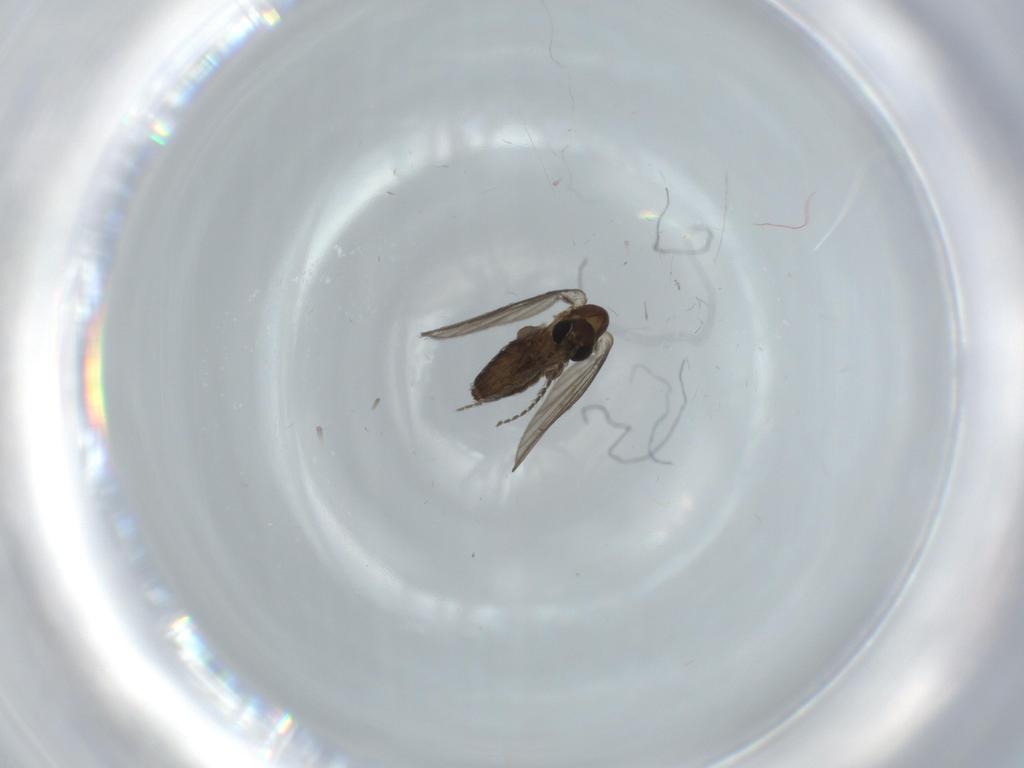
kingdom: Animalia
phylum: Arthropoda
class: Insecta
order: Diptera
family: Psychodidae
